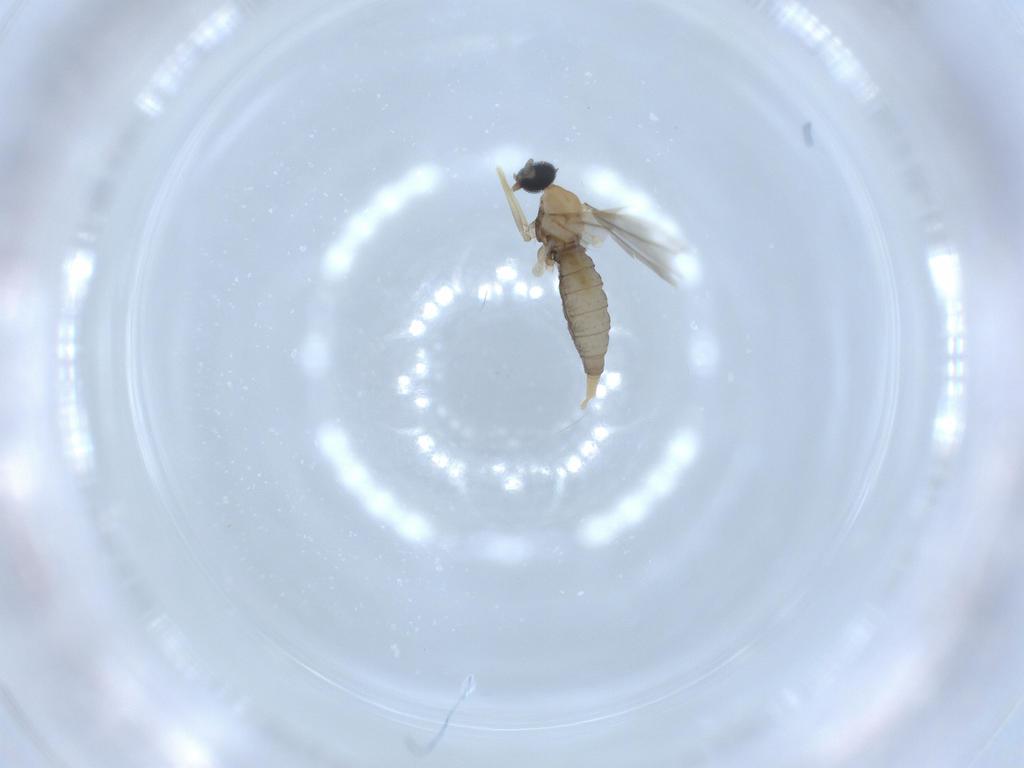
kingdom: Animalia
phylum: Arthropoda
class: Insecta
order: Diptera
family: Cecidomyiidae
